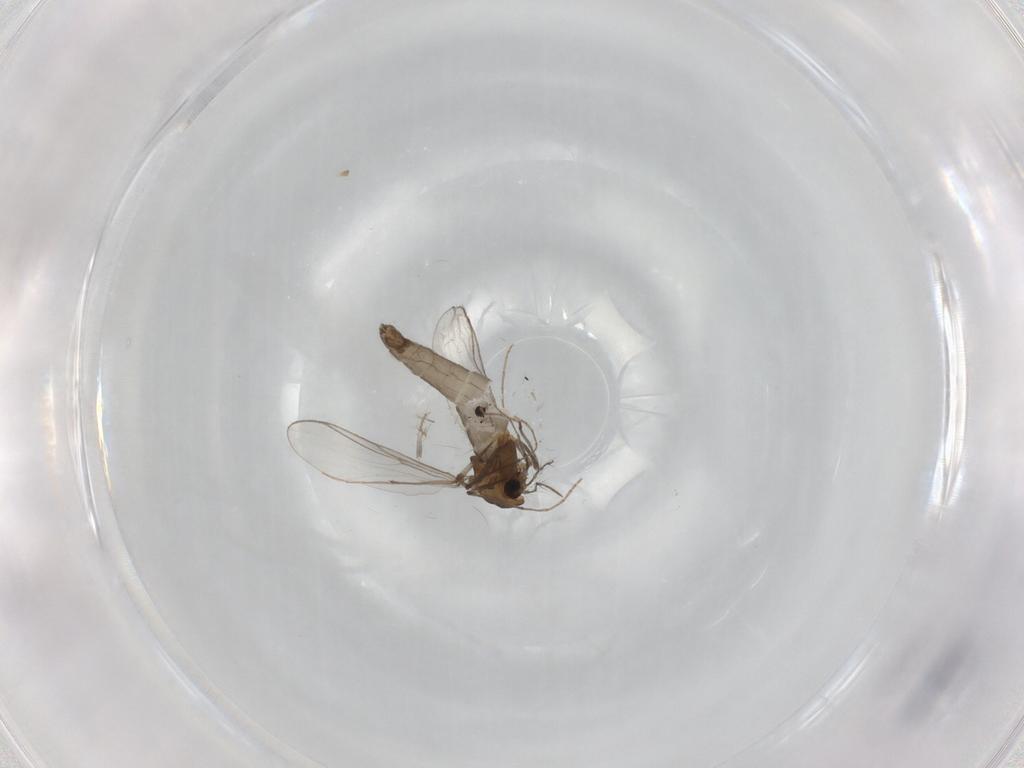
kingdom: Animalia
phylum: Arthropoda
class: Insecta
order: Diptera
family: Chironomidae
